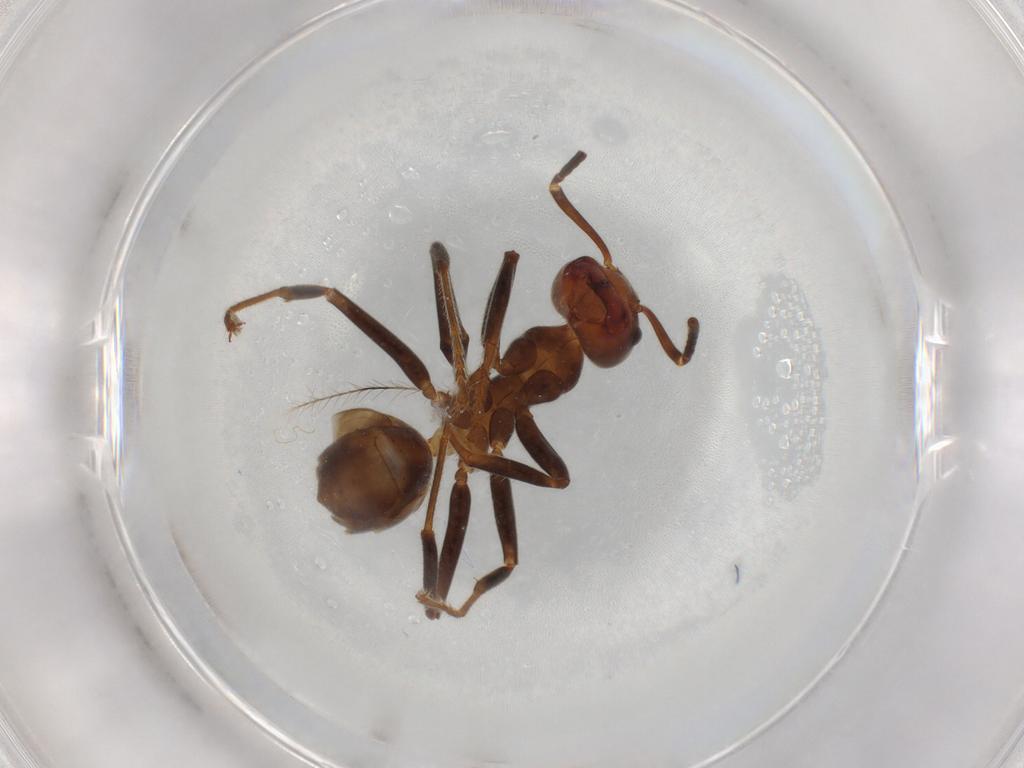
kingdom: Animalia
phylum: Arthropoda
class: Insecta
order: Hymenoptera
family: Formicidae
